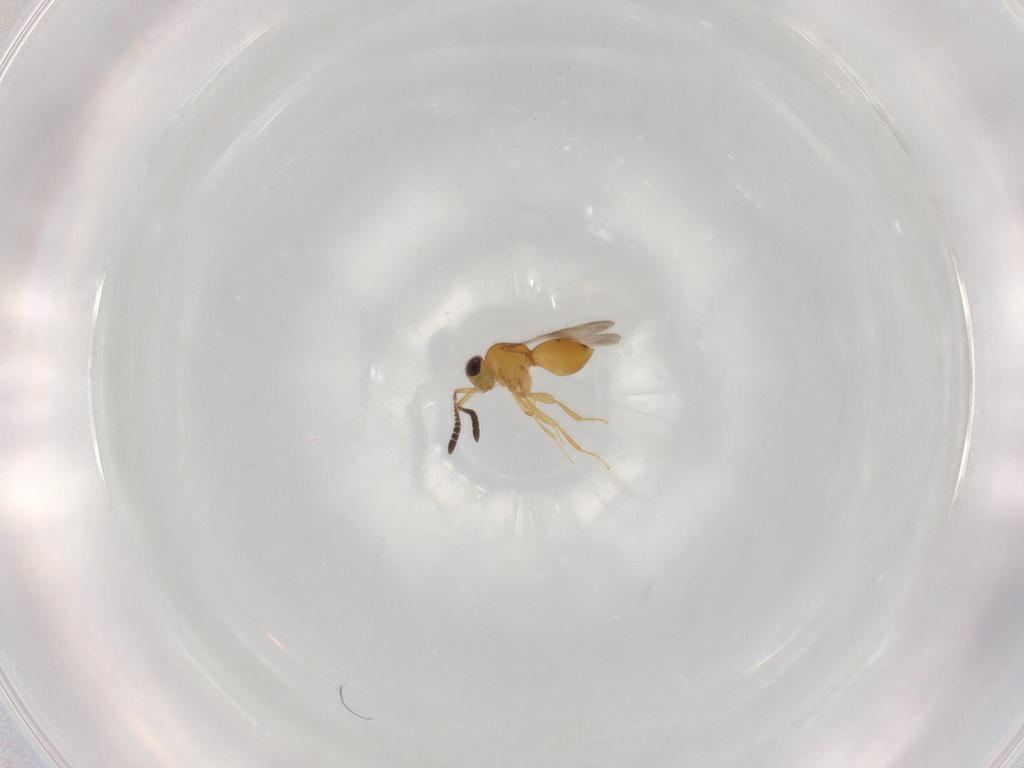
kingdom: Animalia
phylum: Arthropoda
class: Insecta
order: Hymenoptera
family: Ceraphronidae
